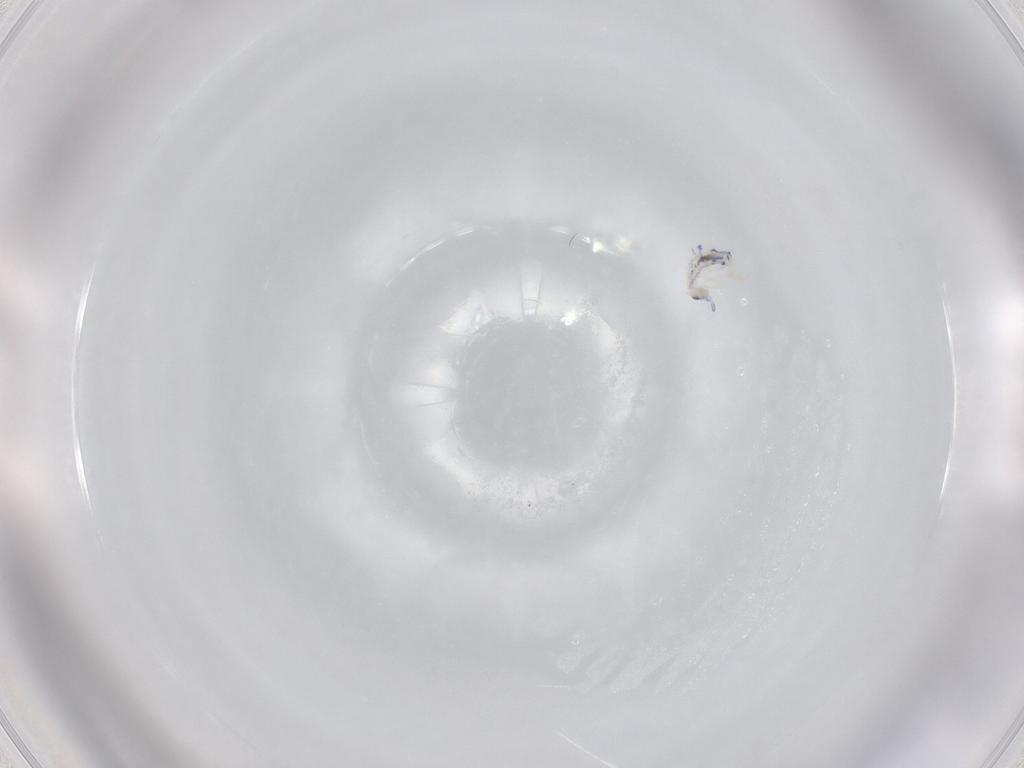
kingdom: Animalia
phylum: Arthropoda
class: Collembola
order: Entomobryomorpha
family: Entomobryidae
